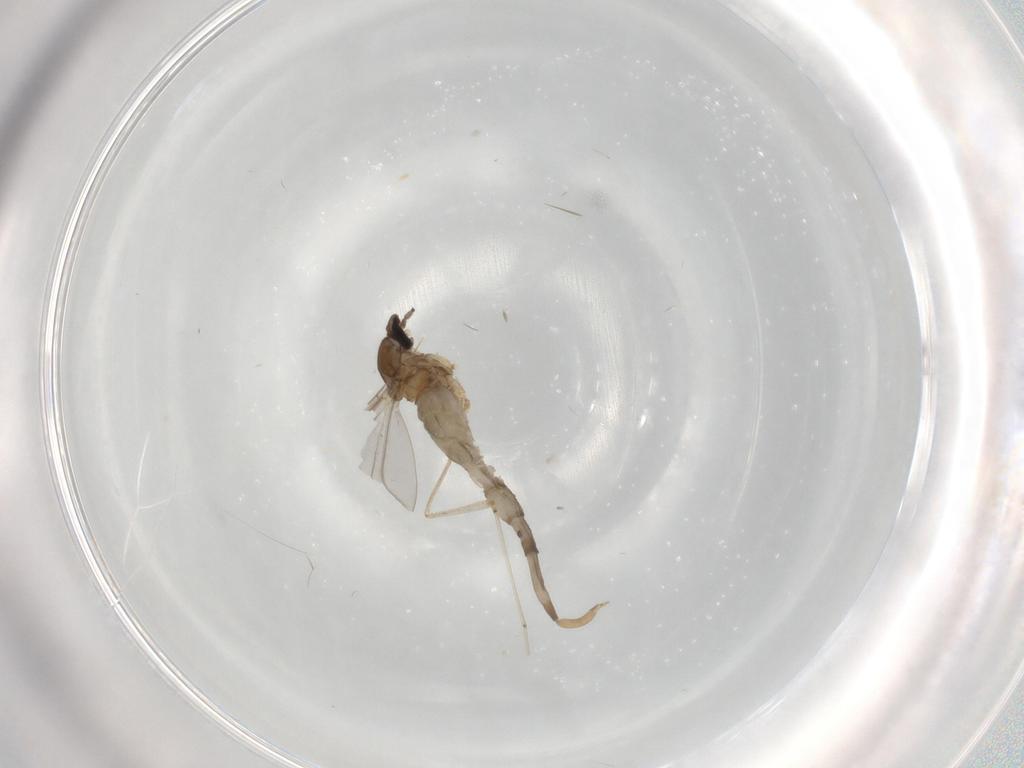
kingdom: Animalia
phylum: Arthropoda
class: Insecta
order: Diptera
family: Cecidomyiidae
